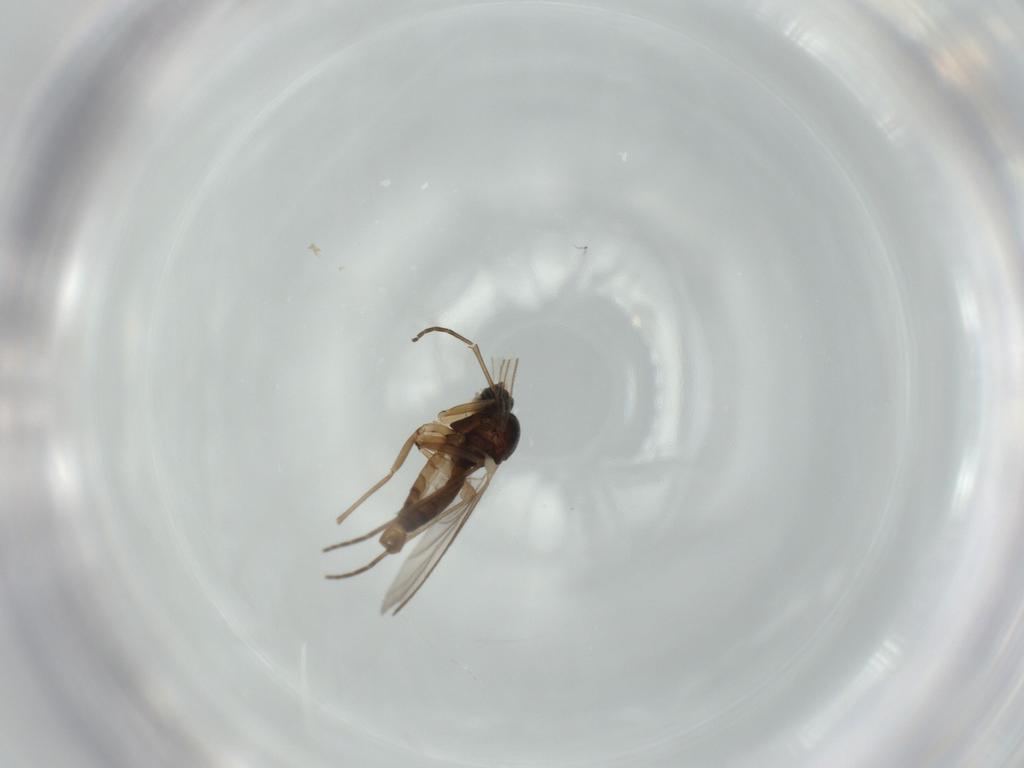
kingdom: Animalia
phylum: Arthropoda
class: Insecta
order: Diptera
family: Sciaridae
